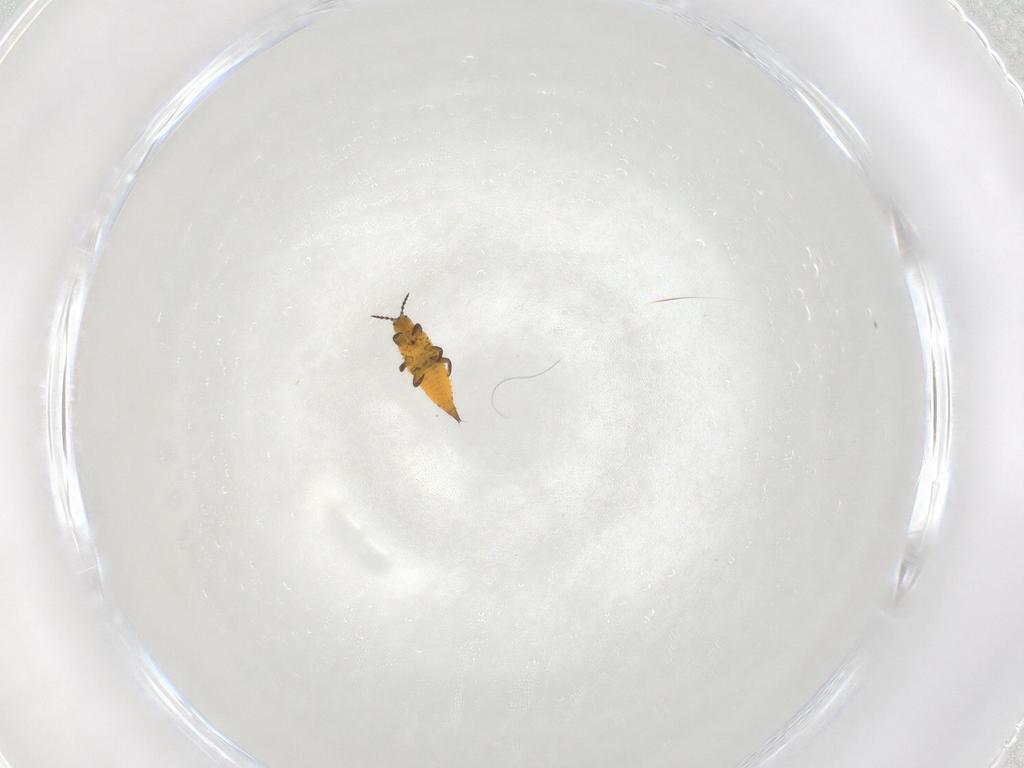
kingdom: Animalia
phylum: Arthropoda
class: Insecta
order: Thysanoptera
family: Phlaeothripidae
